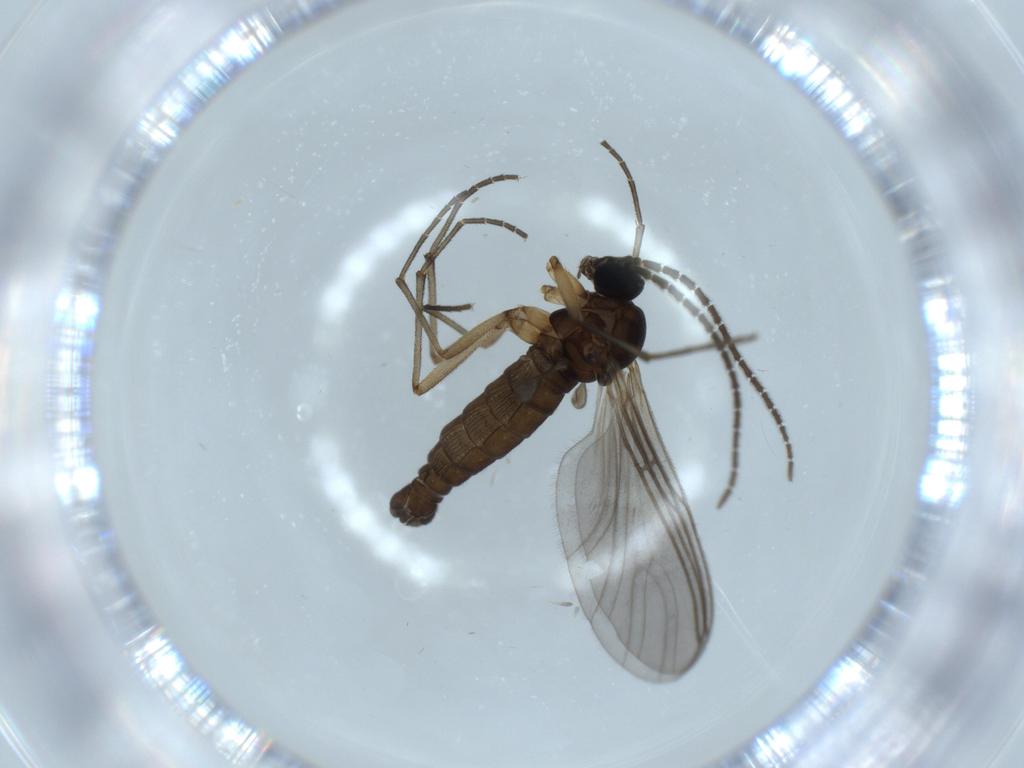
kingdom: Animalia
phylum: Arthropoda
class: Insecta
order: Diptera
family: Sciaridae
